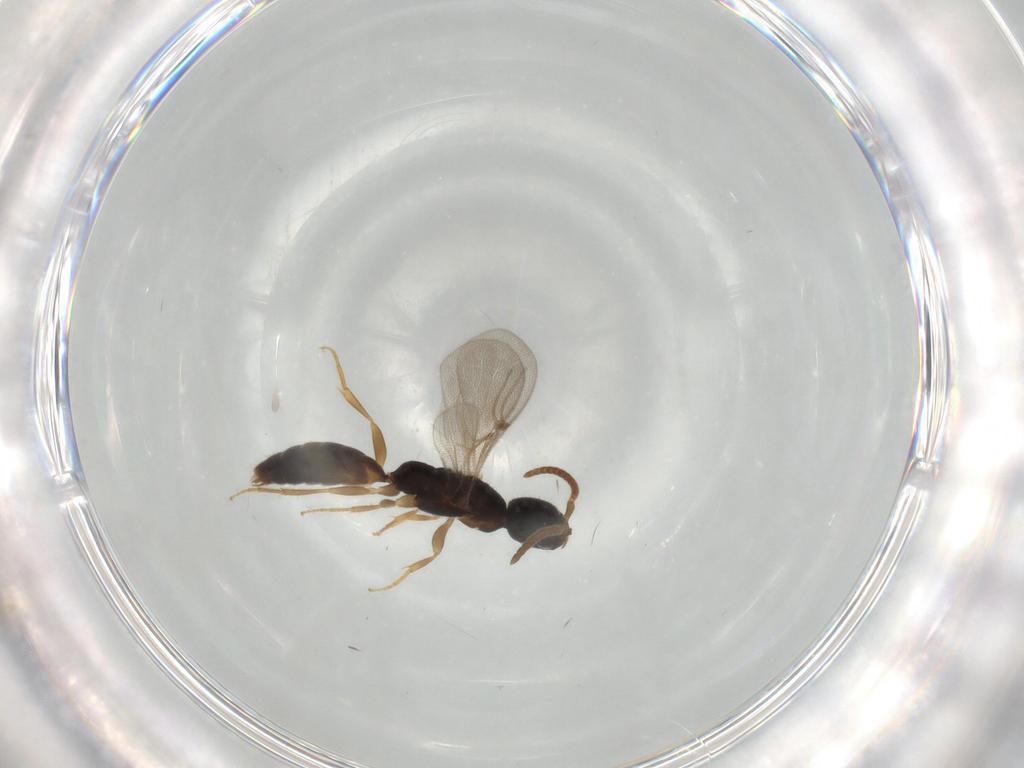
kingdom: Animalia
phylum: Arthropoda
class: Insecta
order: Hymenoptera
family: Bethylidae
